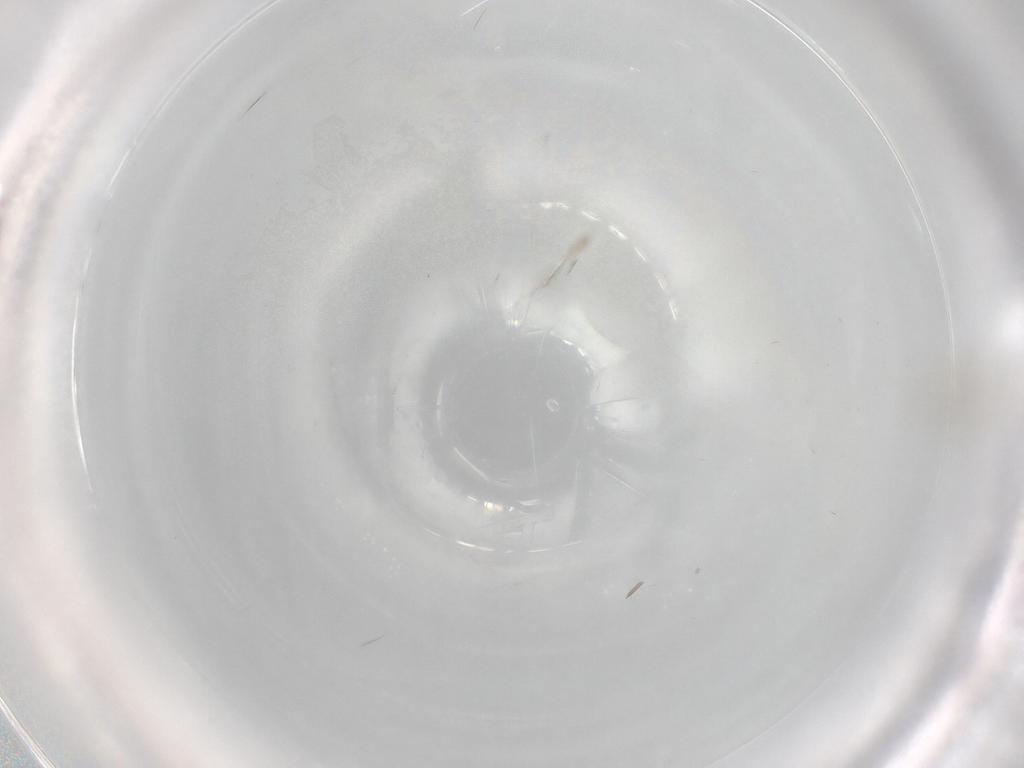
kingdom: Animalia
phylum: Arthropoda
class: Insecta
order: Hymenoptera
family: Mymaridae
